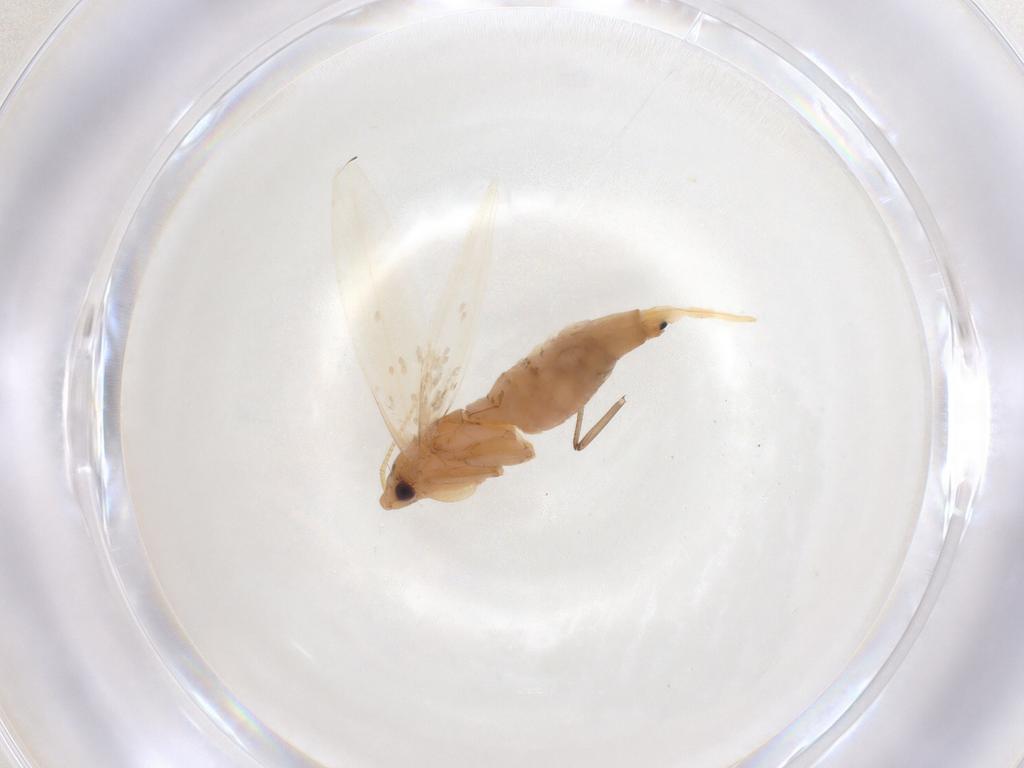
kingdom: Animalia
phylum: Arthropoda
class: Insecta
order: Lepidoptera
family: Tineidae
